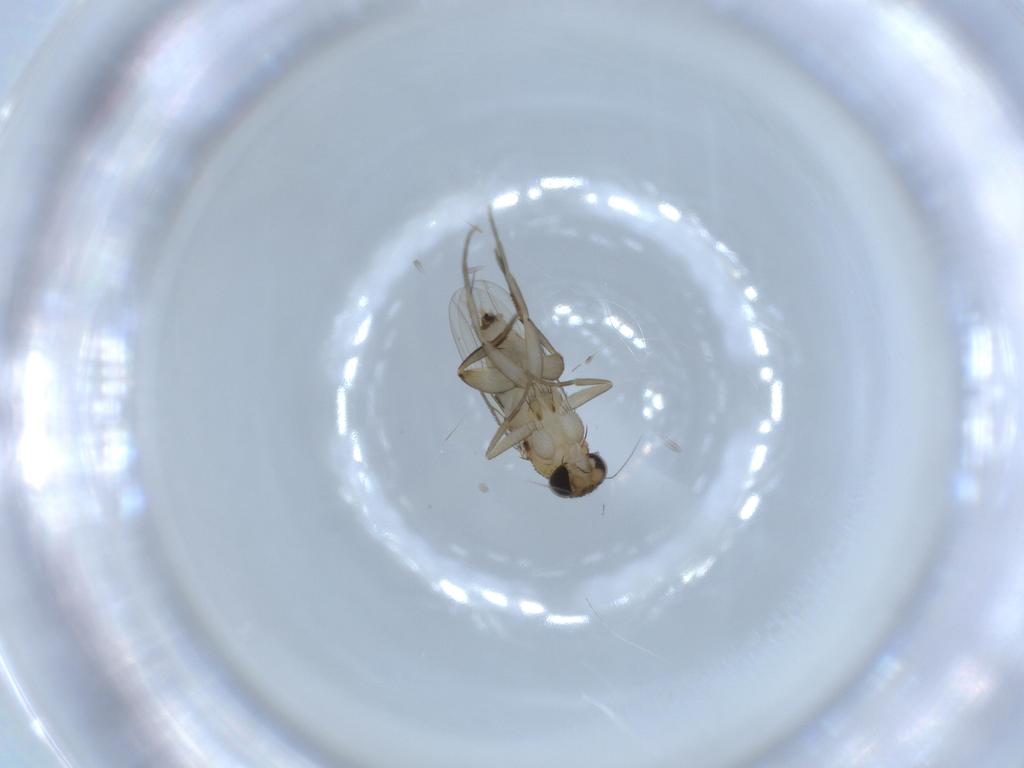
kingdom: Animalia
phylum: Arthropoda
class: Insecta
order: Diptera
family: Phoridae
